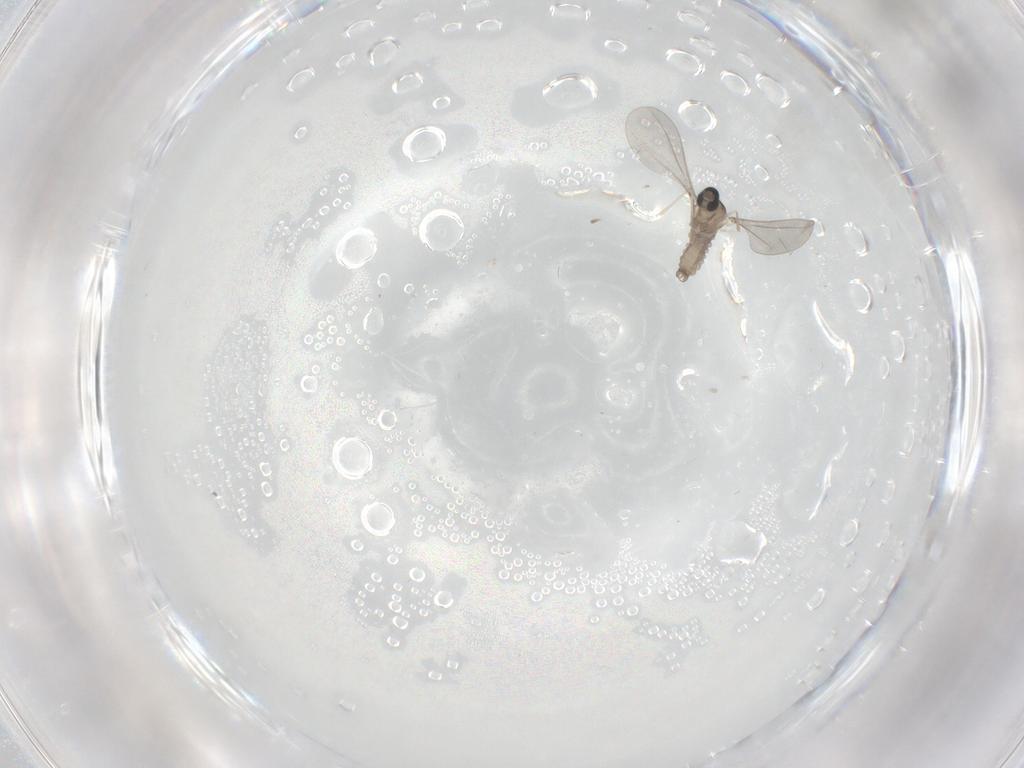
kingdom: Animalia
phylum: Arthropoda
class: Insecta
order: Diptera
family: Cecidomyiidae
